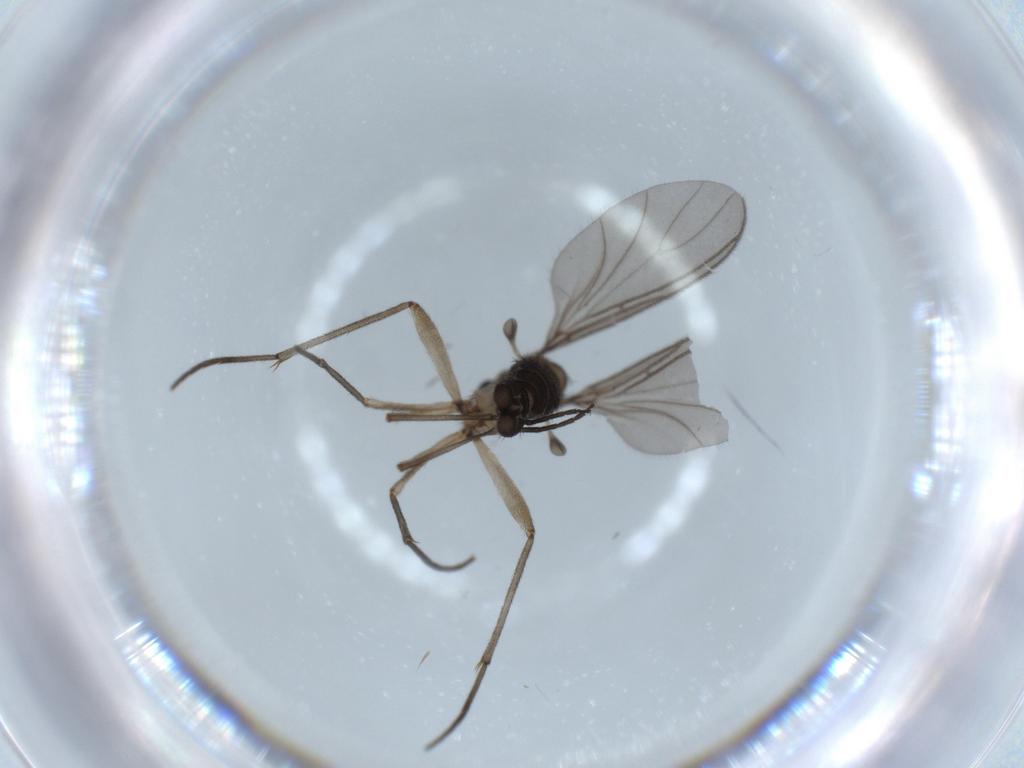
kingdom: Animalia
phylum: Arthropoda
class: Insecta
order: Diptera
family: Sciaridae
